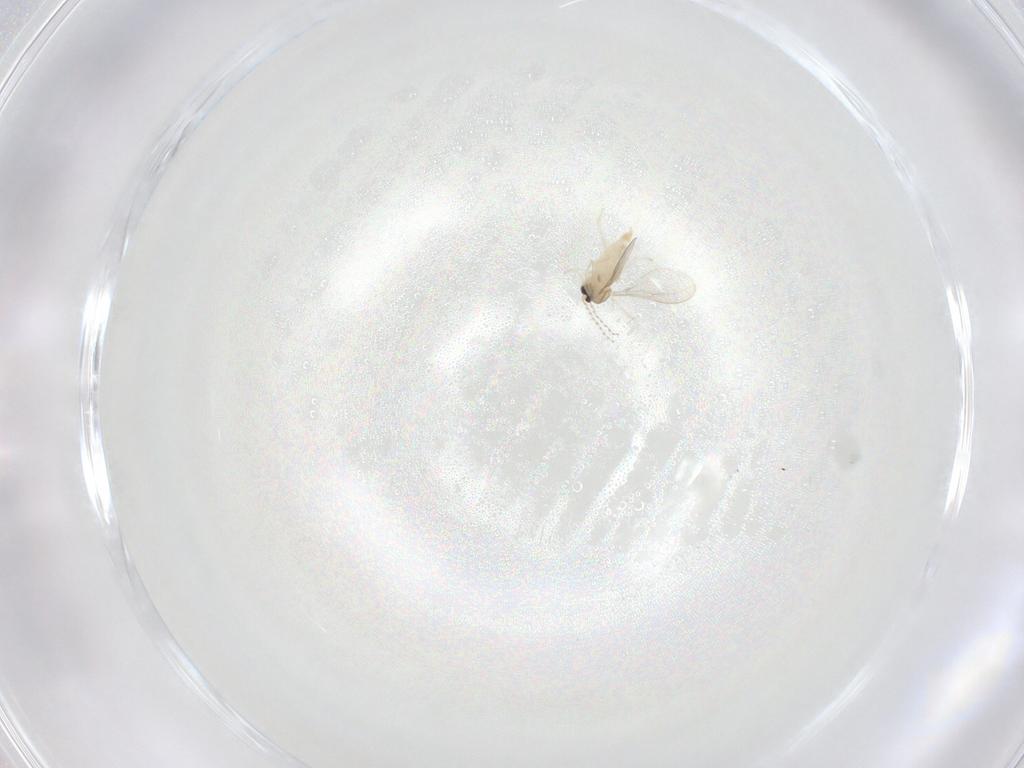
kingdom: Animalia
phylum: Arthropoda
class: Insecta
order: Diptera
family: Cecidomyiidae
